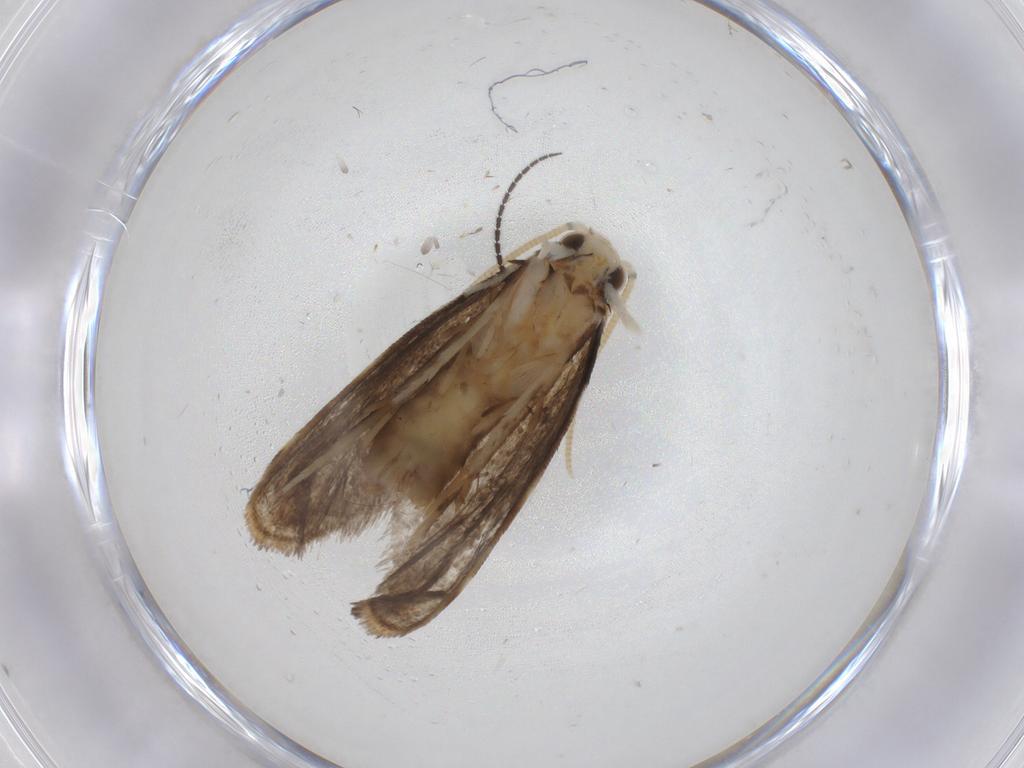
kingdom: Animalia
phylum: Arthropoda
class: Insecta
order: Lepidoptera
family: Dryadaulidae
